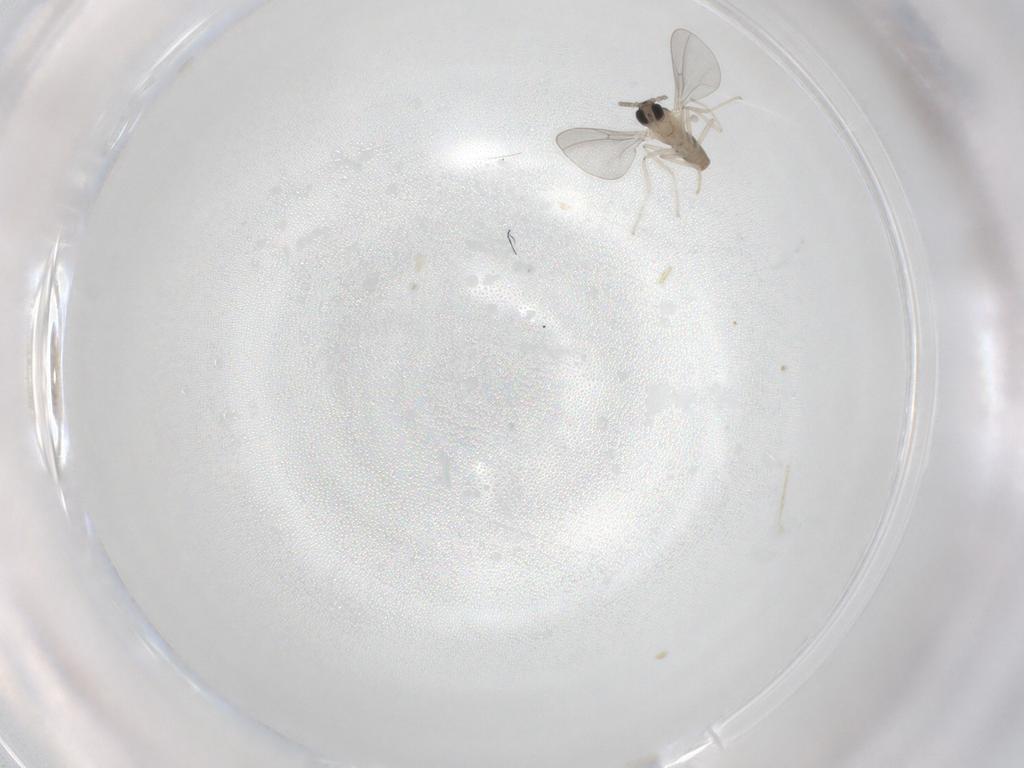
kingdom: Animalia
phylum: Arthropoda
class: Insecta
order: Diptera
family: Cecidomyiidae
